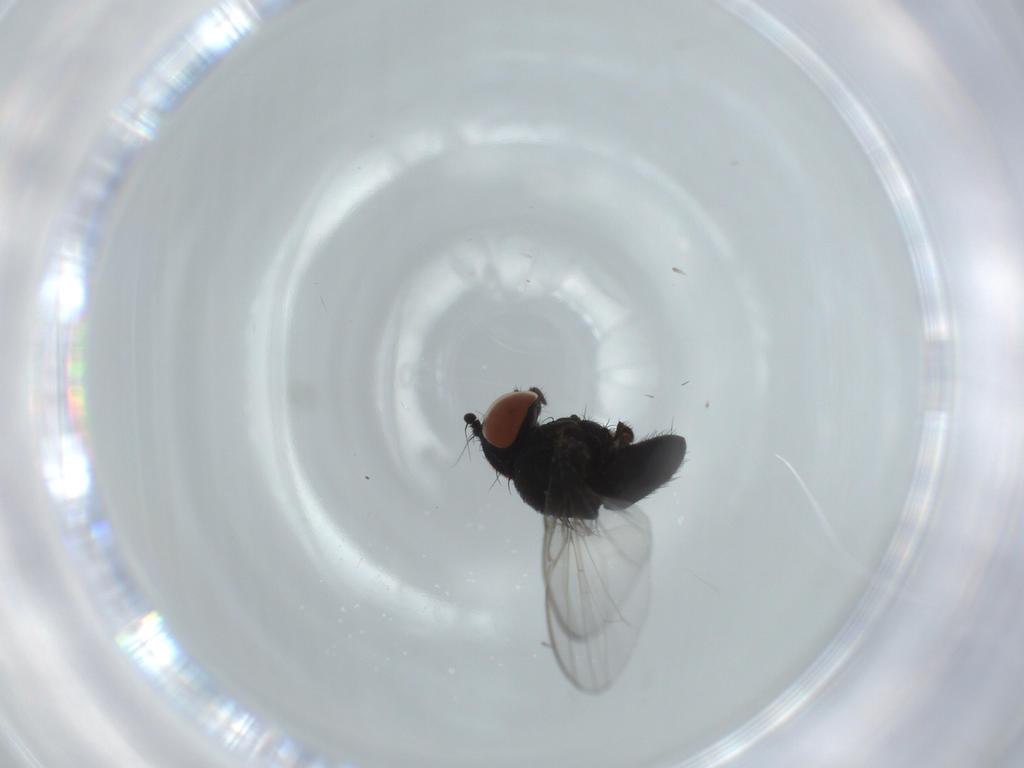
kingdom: Animalia
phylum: Arthropoda
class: Insecta
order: Diptera
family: Milichiidae
